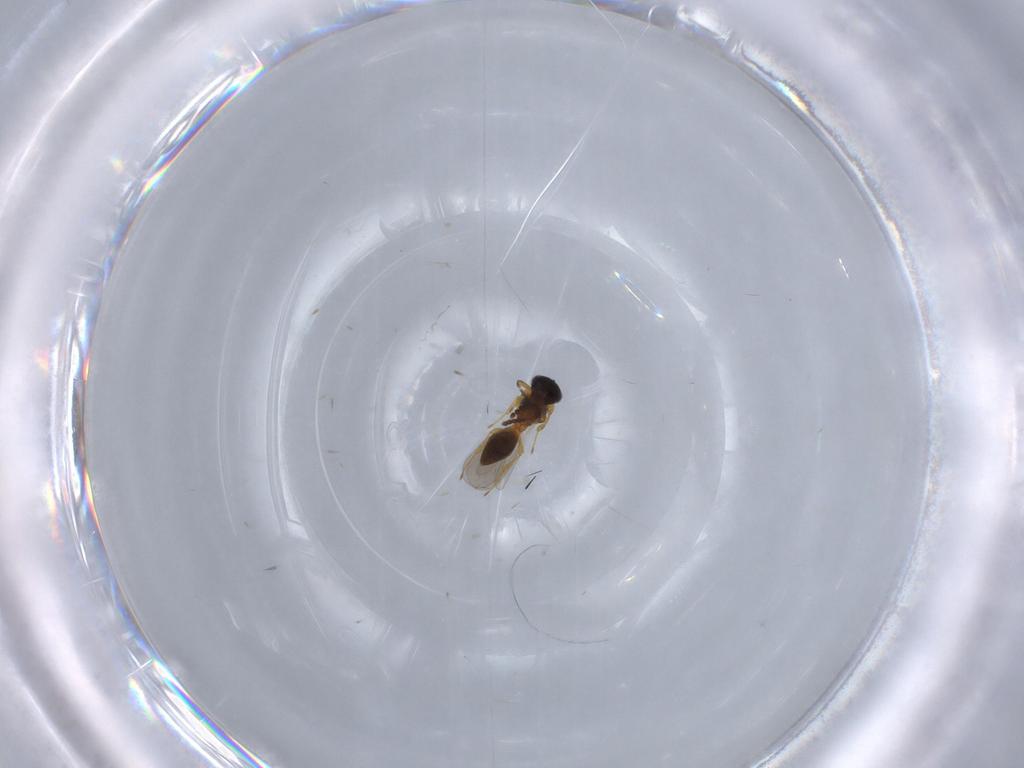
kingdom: Animalia
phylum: Arthropoda
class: Insecta
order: Hymenoptera
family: Platygastridae
